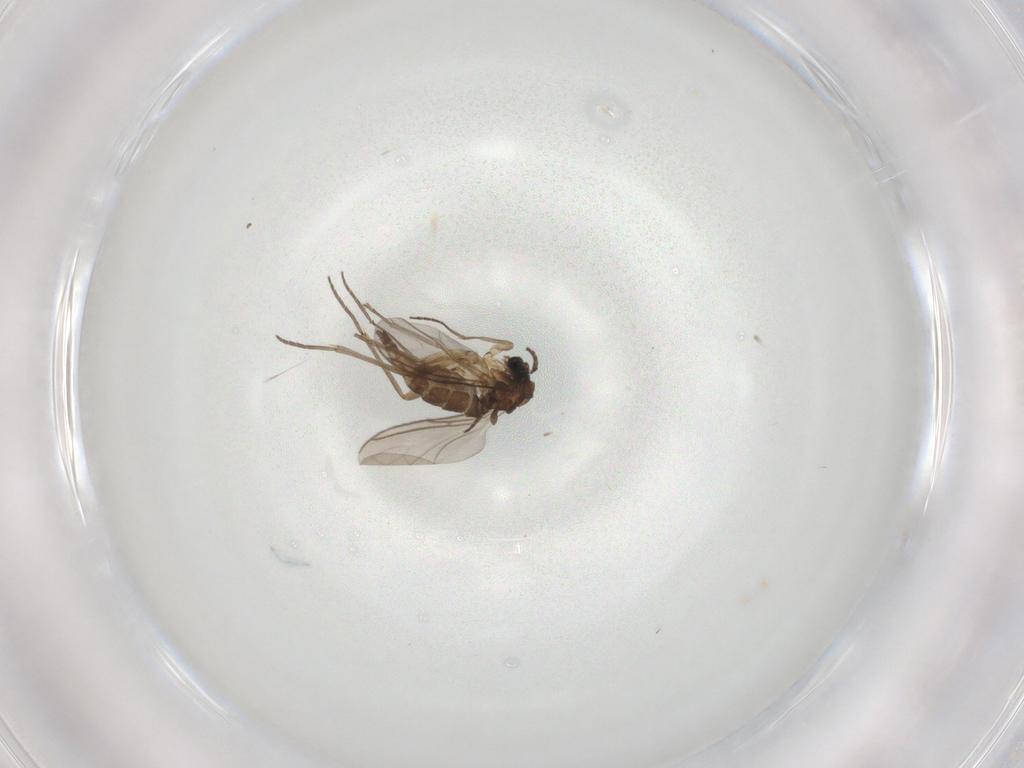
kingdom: Animalia
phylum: Arthropoda
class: Insecta
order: Diptera
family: Sciaridae
